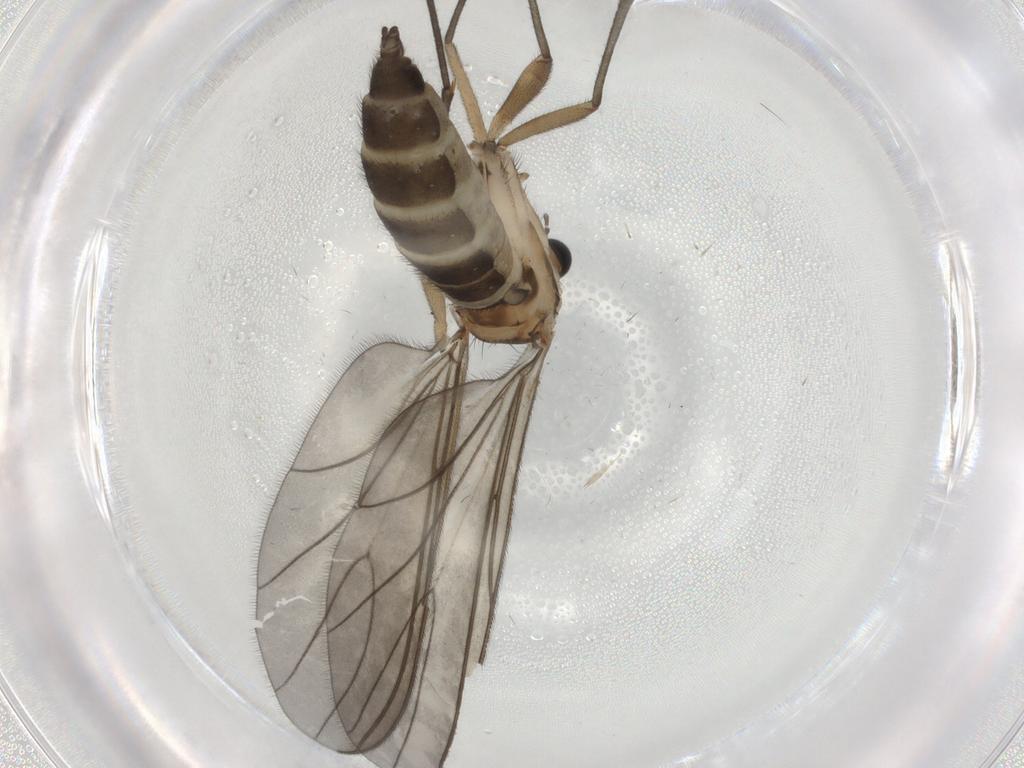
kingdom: Animalia
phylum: Arthropoda
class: Insecta
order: Diptera
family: Sciaridae
